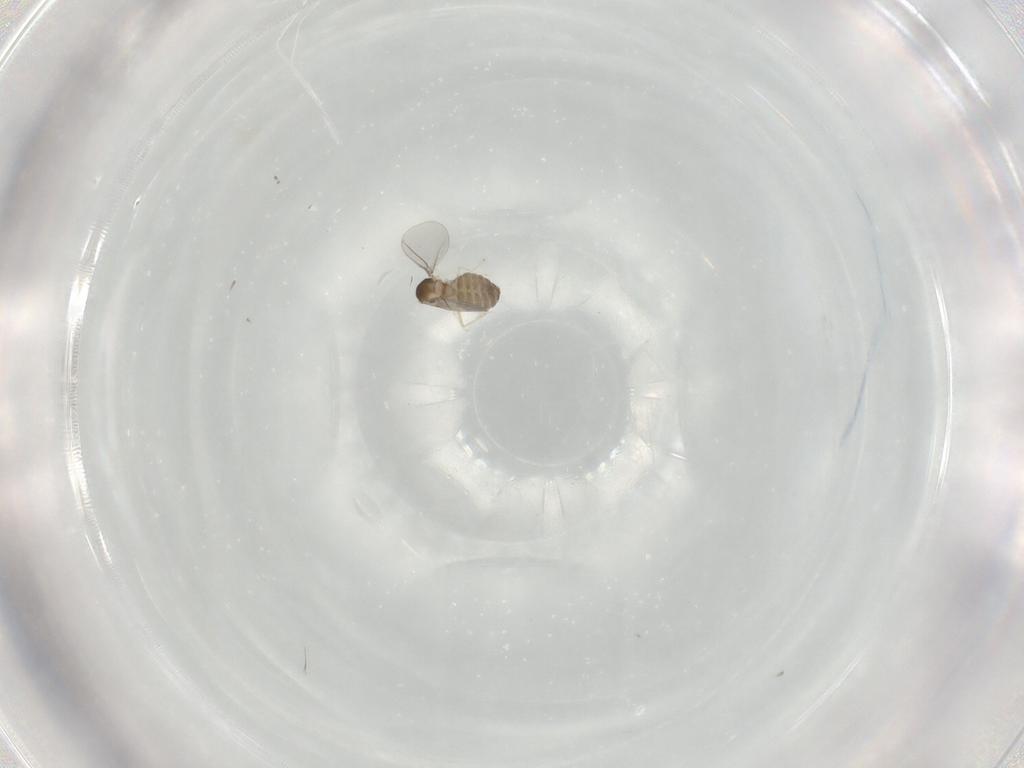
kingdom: Animalia
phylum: Arthropoda
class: Insecta
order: Diptera
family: Cecidomyiidae
